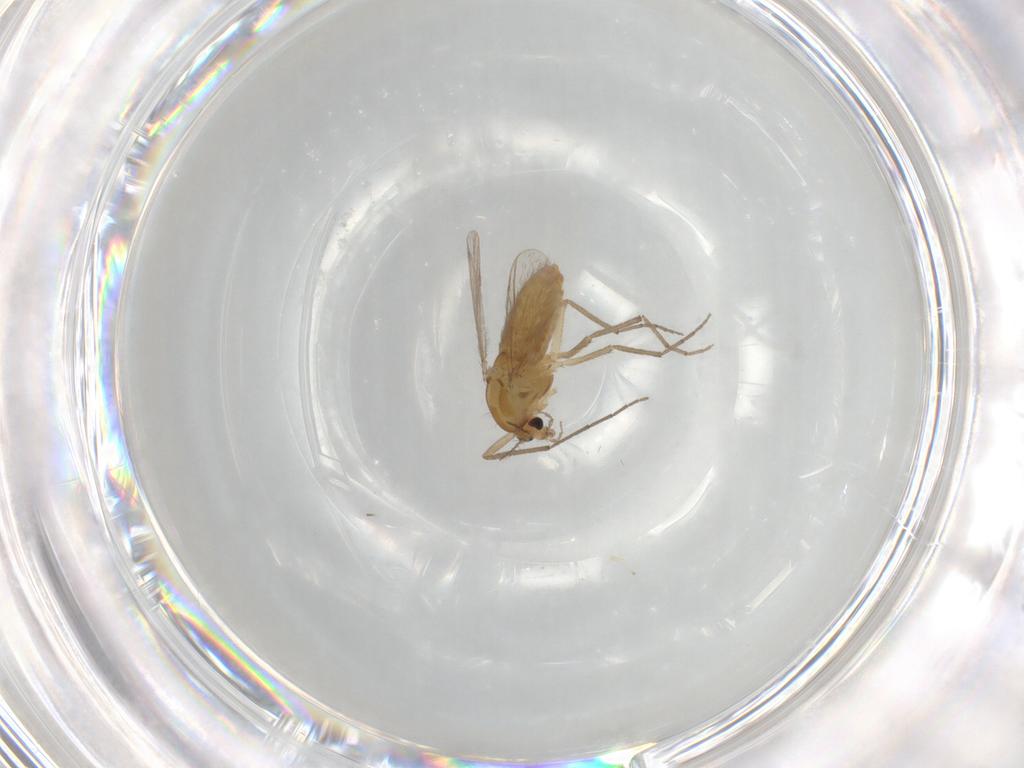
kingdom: Animalia
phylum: Arthropoda
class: Insecta
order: Diptera
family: Chironomidae
